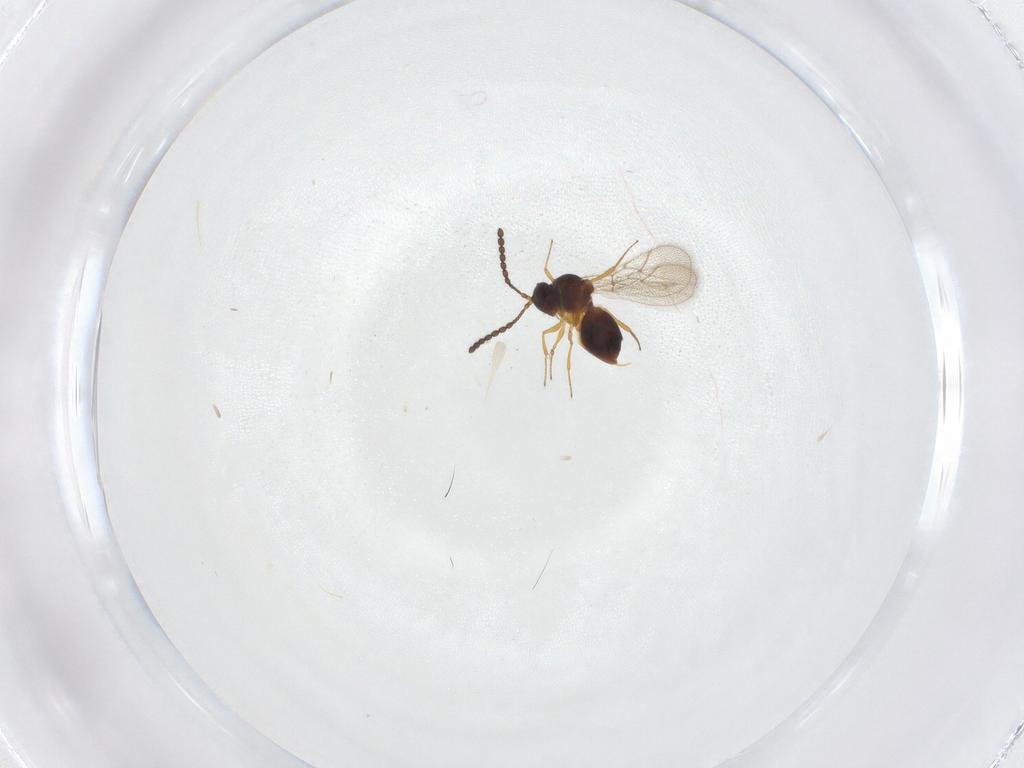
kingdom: Animalia
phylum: Arthropoda
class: Insecta
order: Hymenoptera
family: Figitidae
